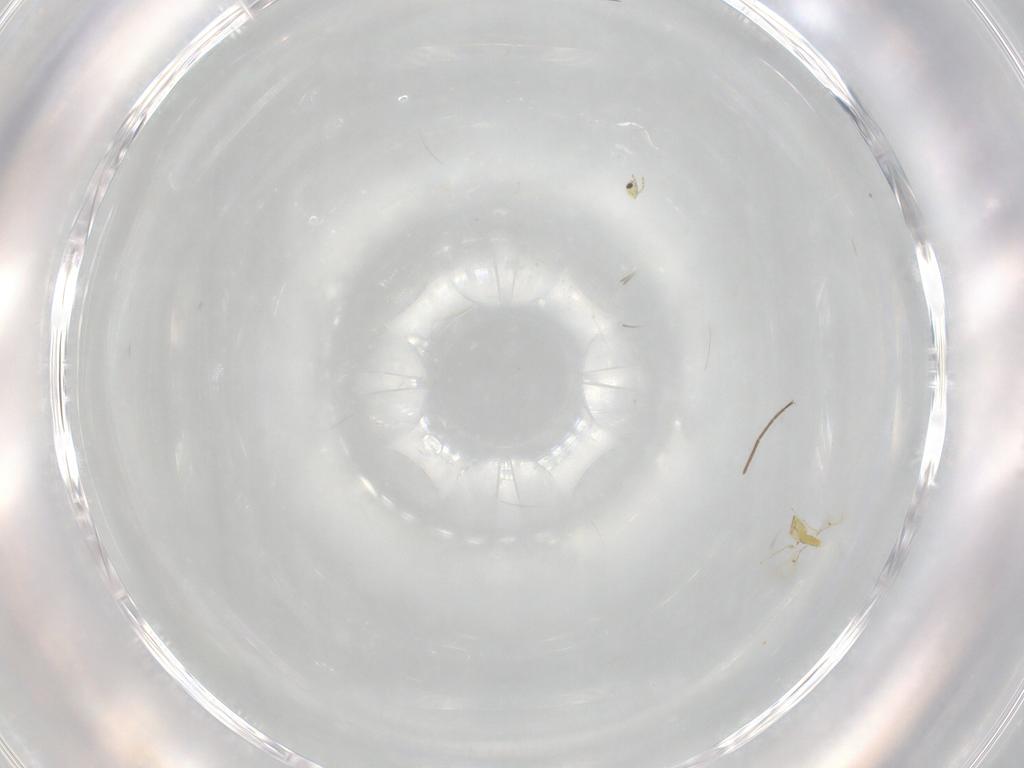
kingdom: Animalia
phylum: Arthropoda
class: Insecta
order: Hymenoptera
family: Trichogrammatidae
